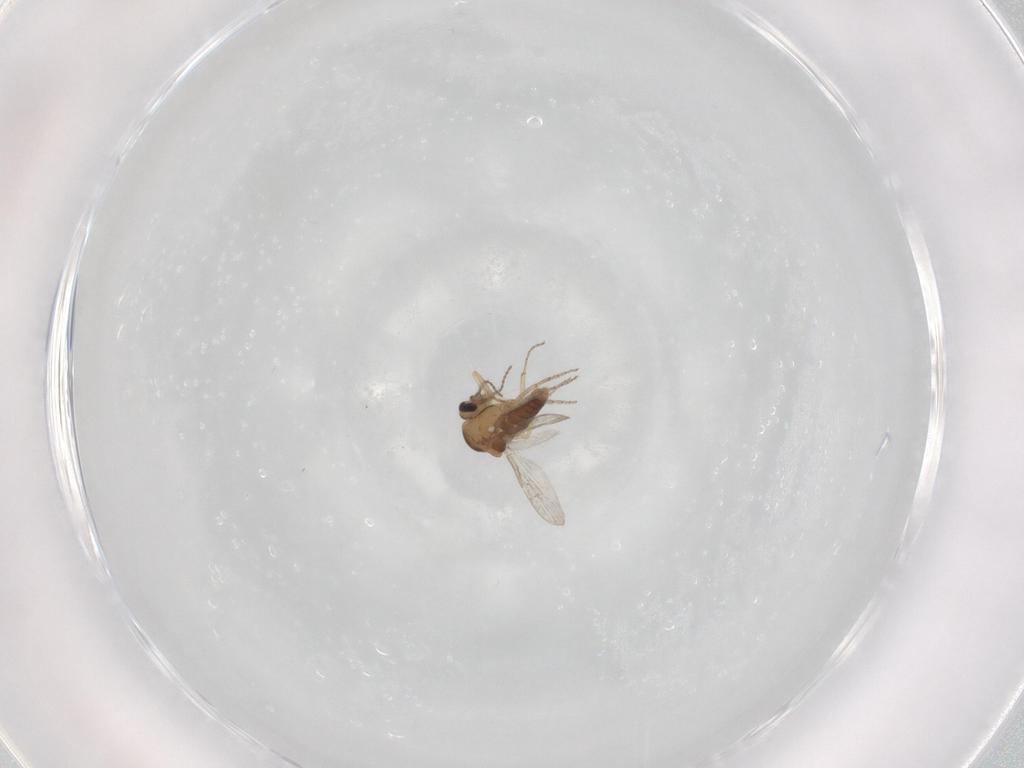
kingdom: Animalia
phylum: Arthropoda
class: Insecta
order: Diptera
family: Ceratopogonidae
